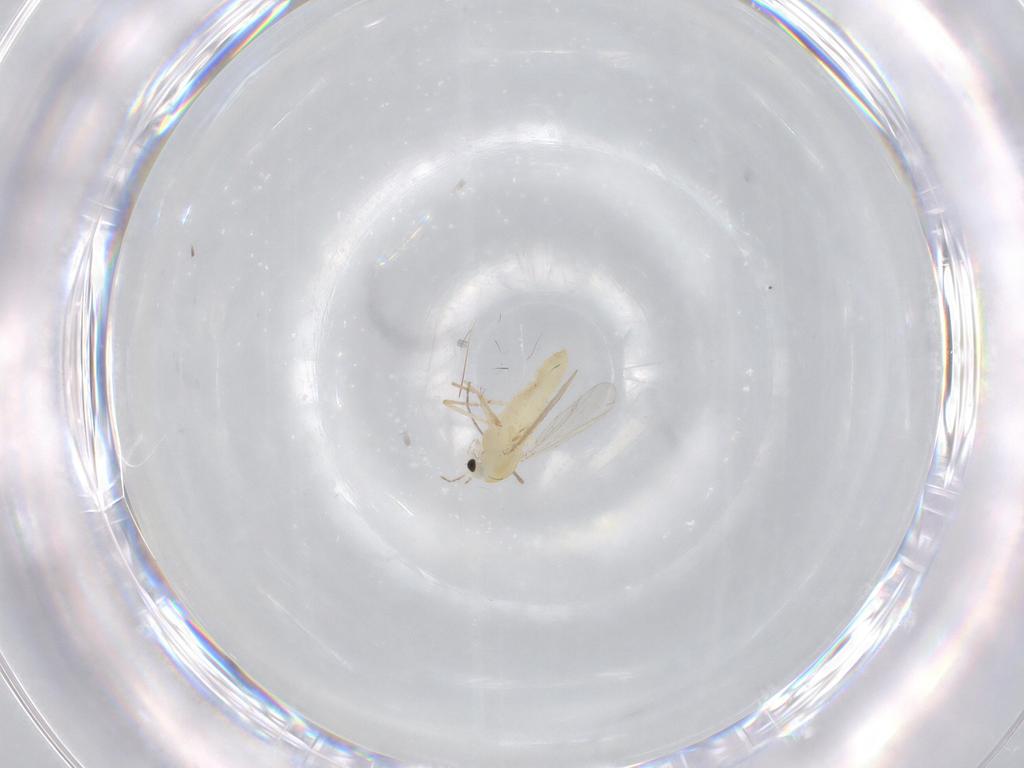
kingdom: Animalia
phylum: Arthropoda
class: Insecta
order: Diptera
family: Chironomidae
